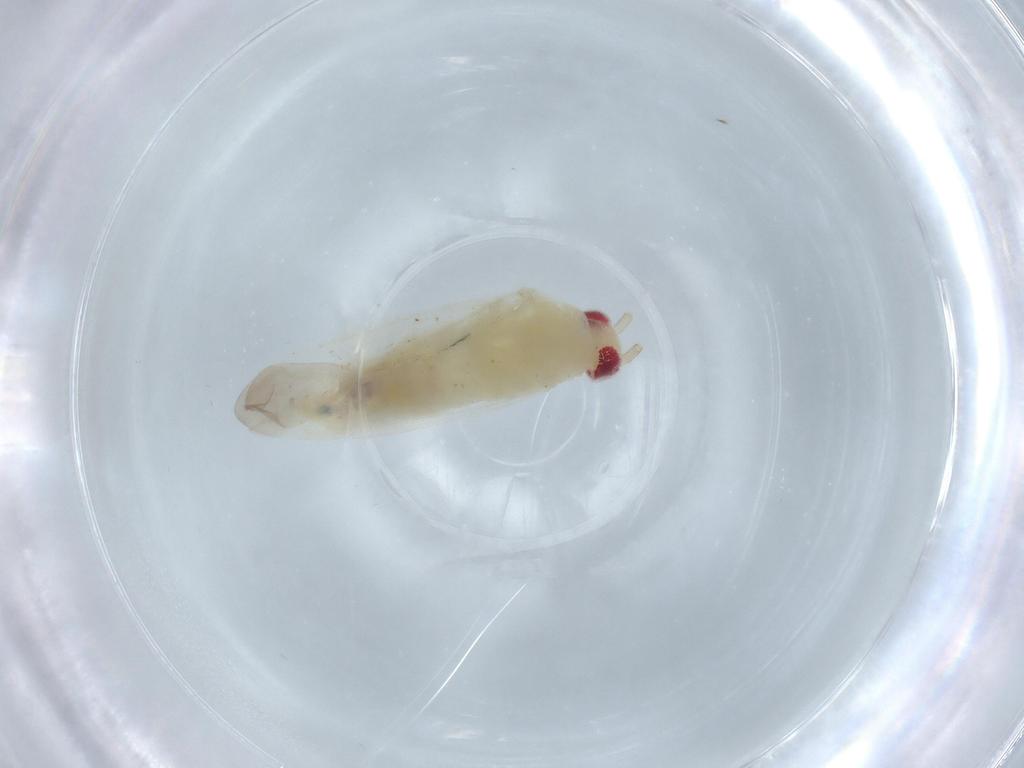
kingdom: Animalia
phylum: Arthropoda
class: Insecta
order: Hemiptera
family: Miridae
